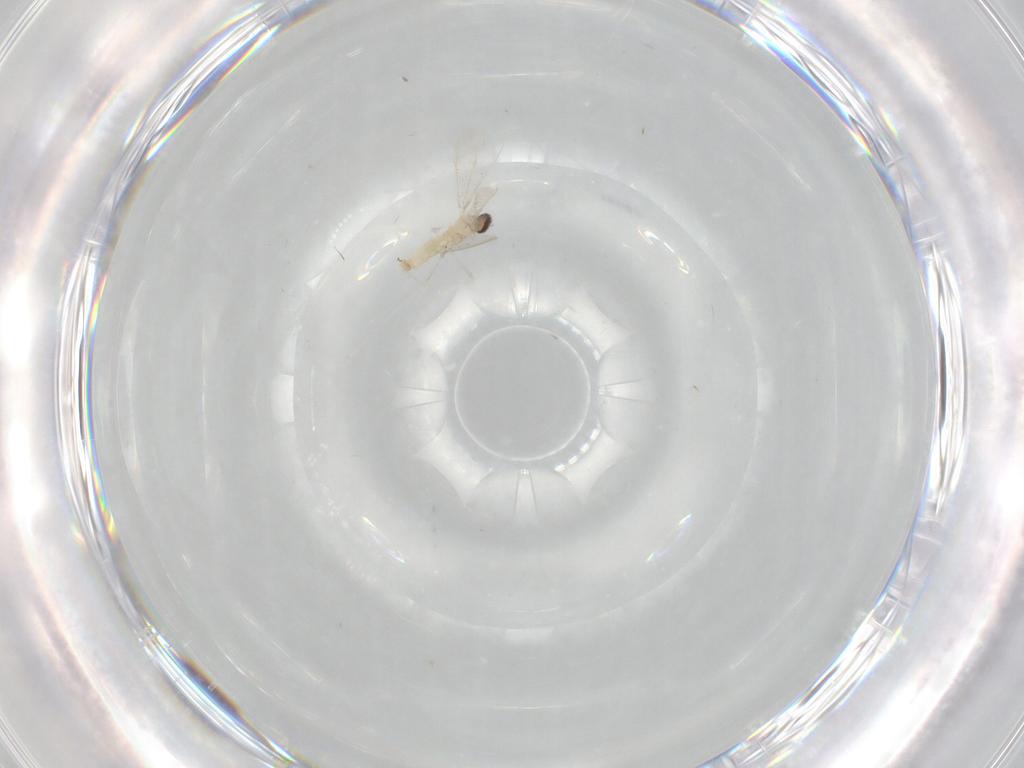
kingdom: Animalia
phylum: Arthropoda
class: Insecta
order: Diptera
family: Cecidomyiidae
